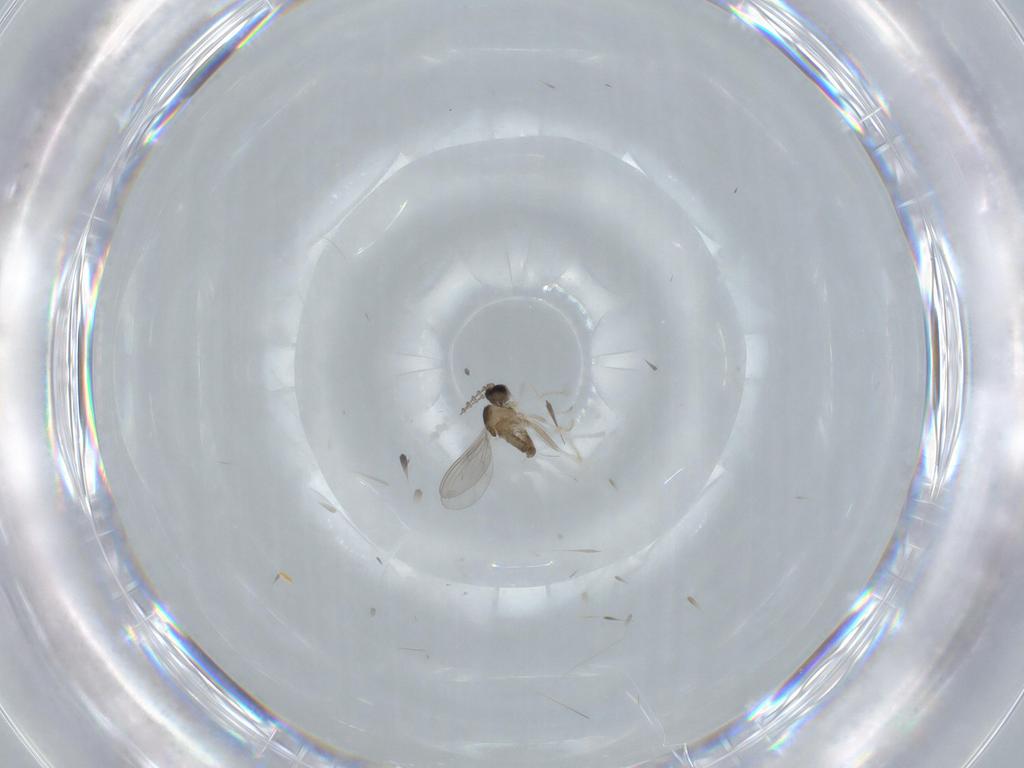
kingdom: Animalia
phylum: Arthropoda
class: Insecta
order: Diptera
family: Cecidomyiidae
